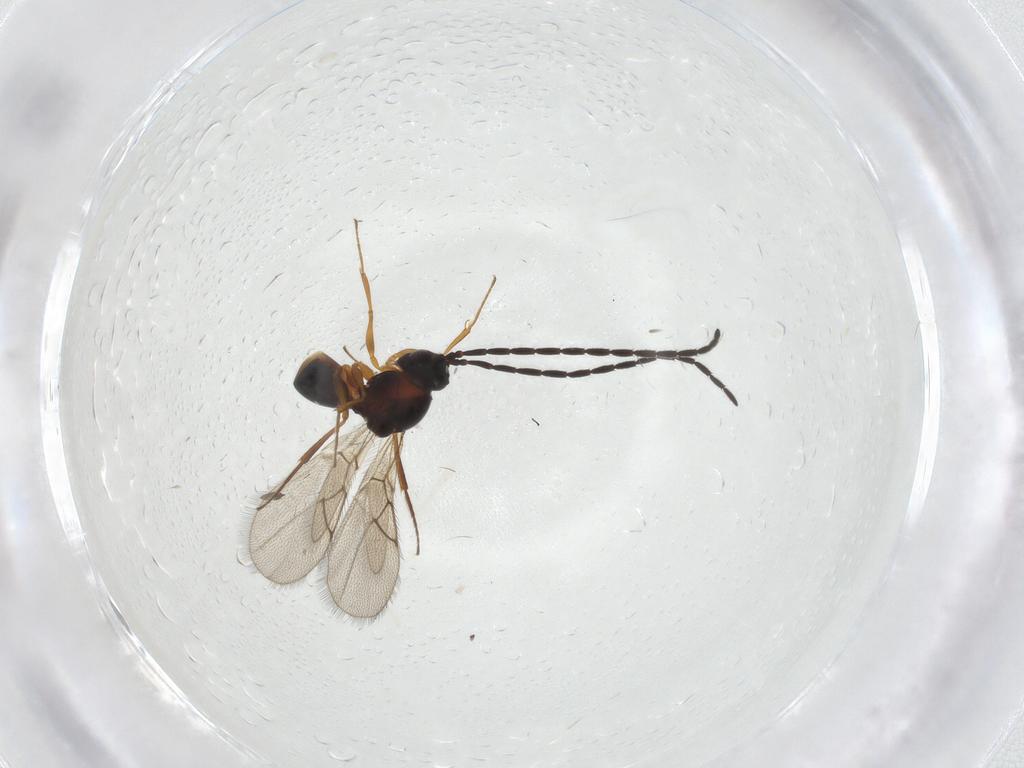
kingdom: Animalia
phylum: Arthropoda
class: Insecta
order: Hymenoptera
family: Figitidae
